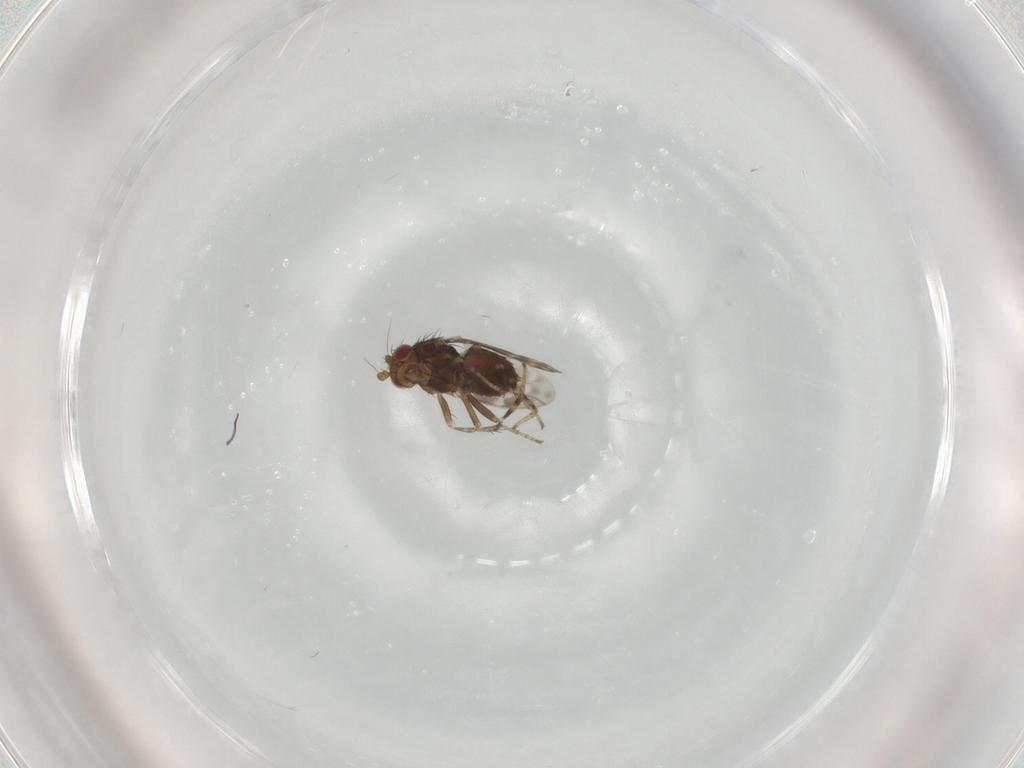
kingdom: Animalia
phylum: Arthropoda
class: Insecta
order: Diptera
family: Sphaeroceridae
